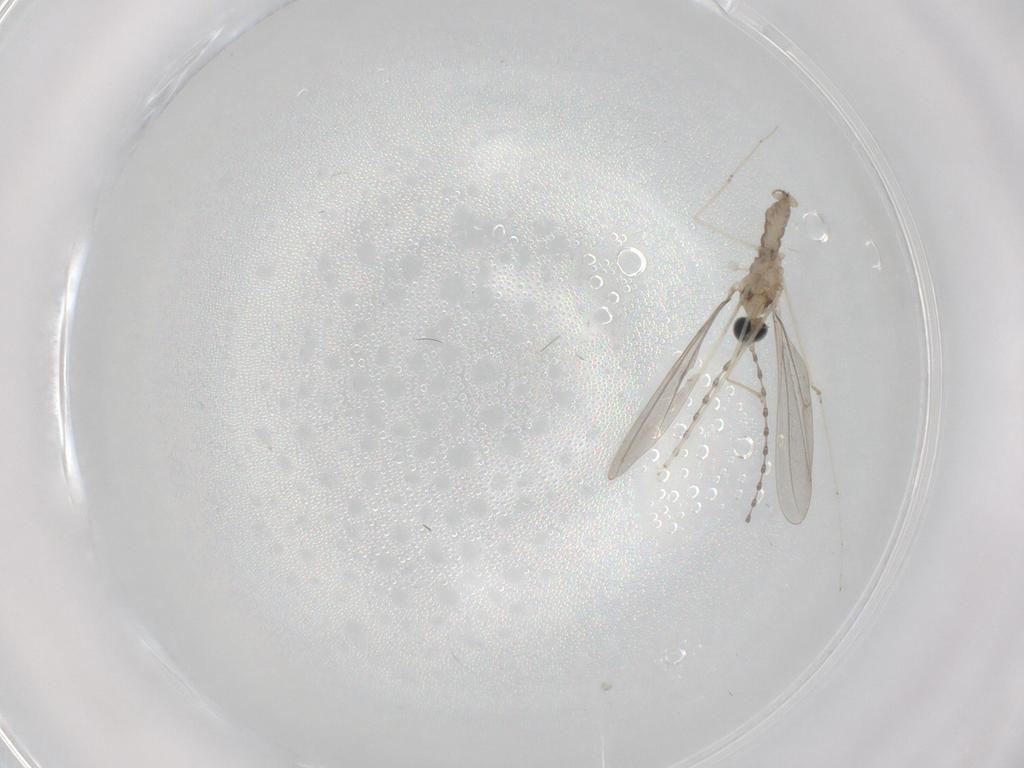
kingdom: Animalia
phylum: Arthropoda
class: Insecta
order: Diptera
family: Cecidomyiidae
